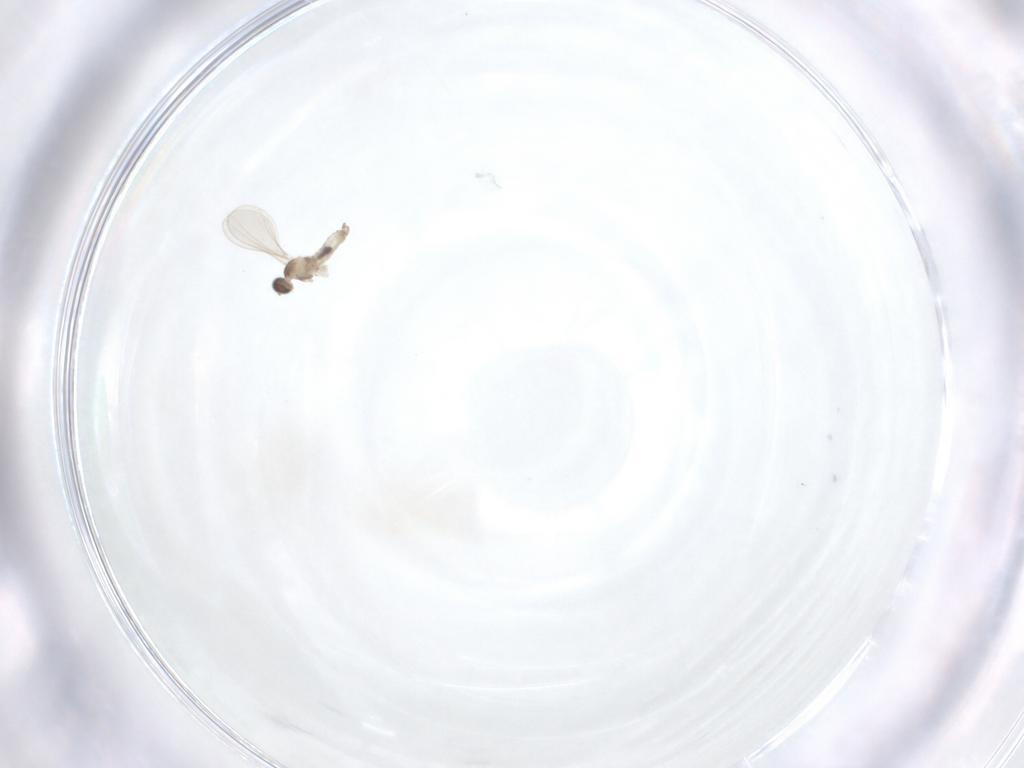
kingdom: Animalia
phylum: Arthropoda
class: Insecta
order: Diptera
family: Cecidomyiidae
